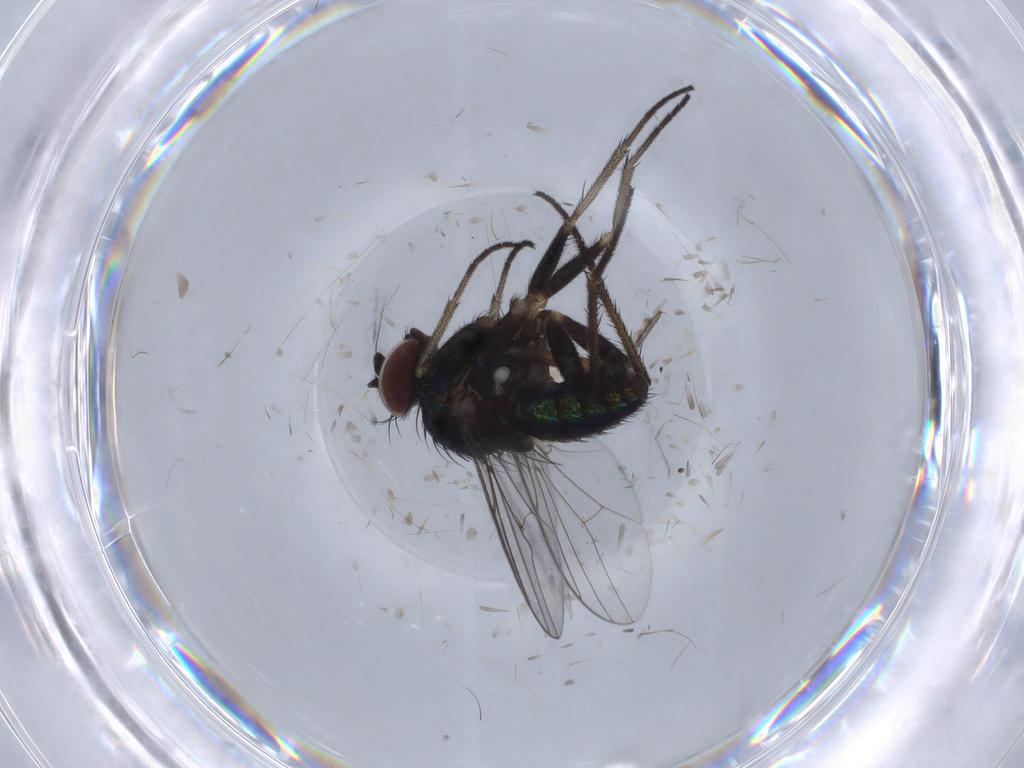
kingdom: Animalia
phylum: Arthropoda
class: Insecta
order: Diptera
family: Dolichopodidae
